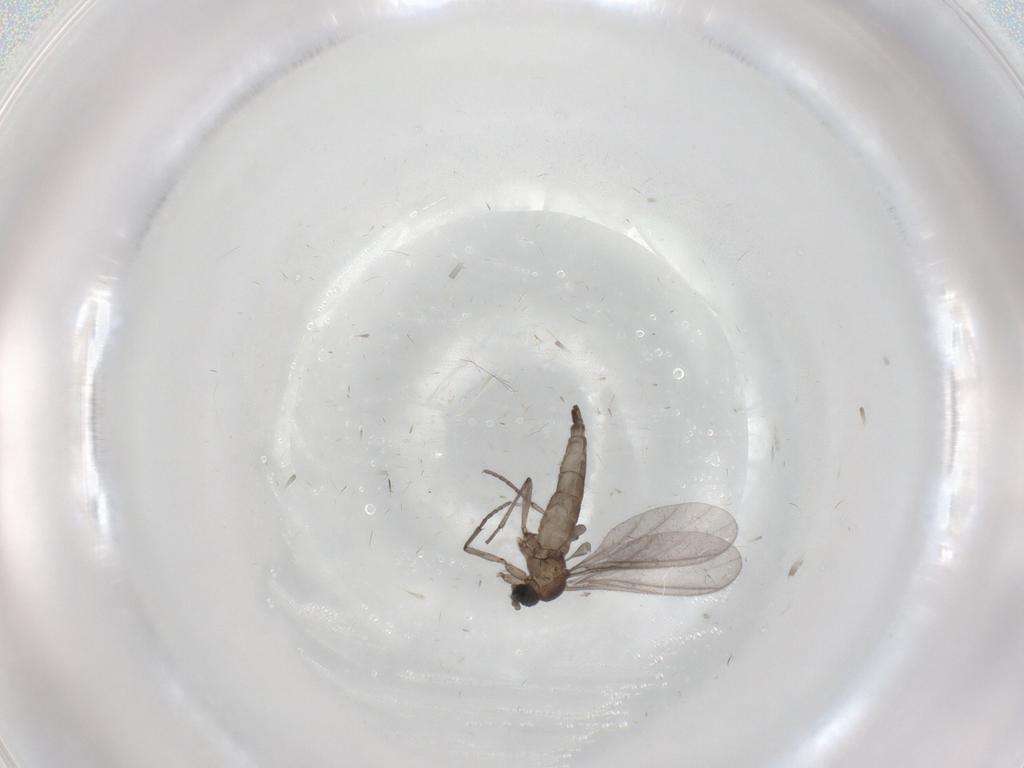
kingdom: Animalia
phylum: Arthropoda
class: Insecta
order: Diptera
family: Sciaridae
